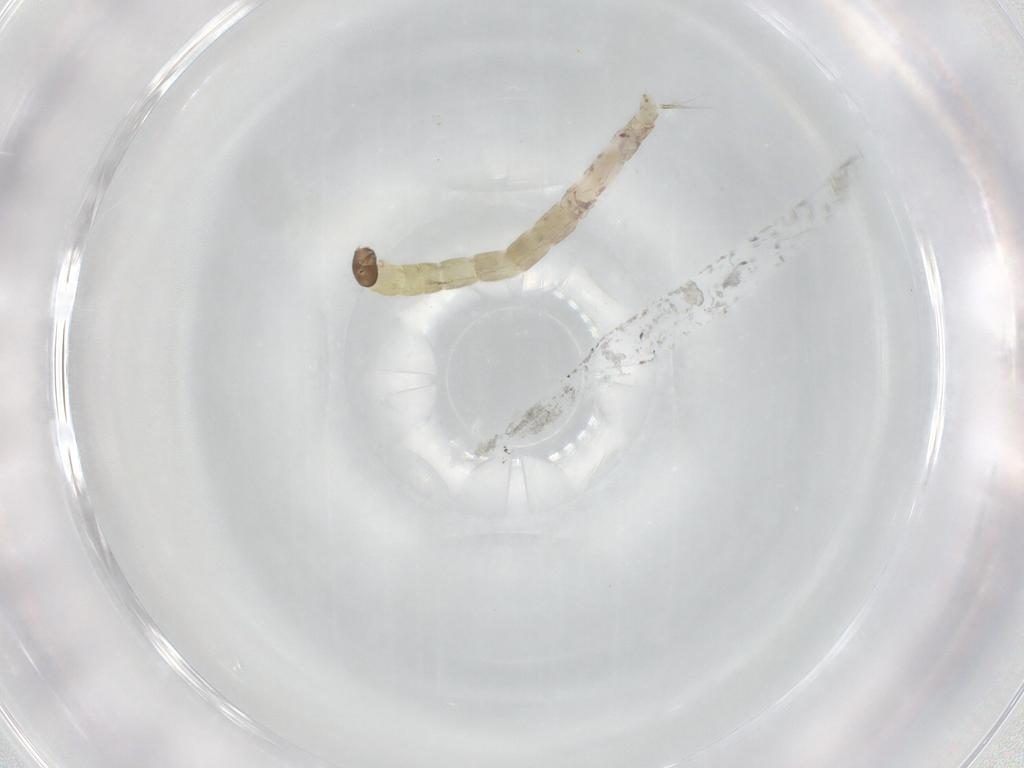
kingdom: Animalia
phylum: Arthropoda
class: Insecta
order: Diptera
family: Chironomidae
